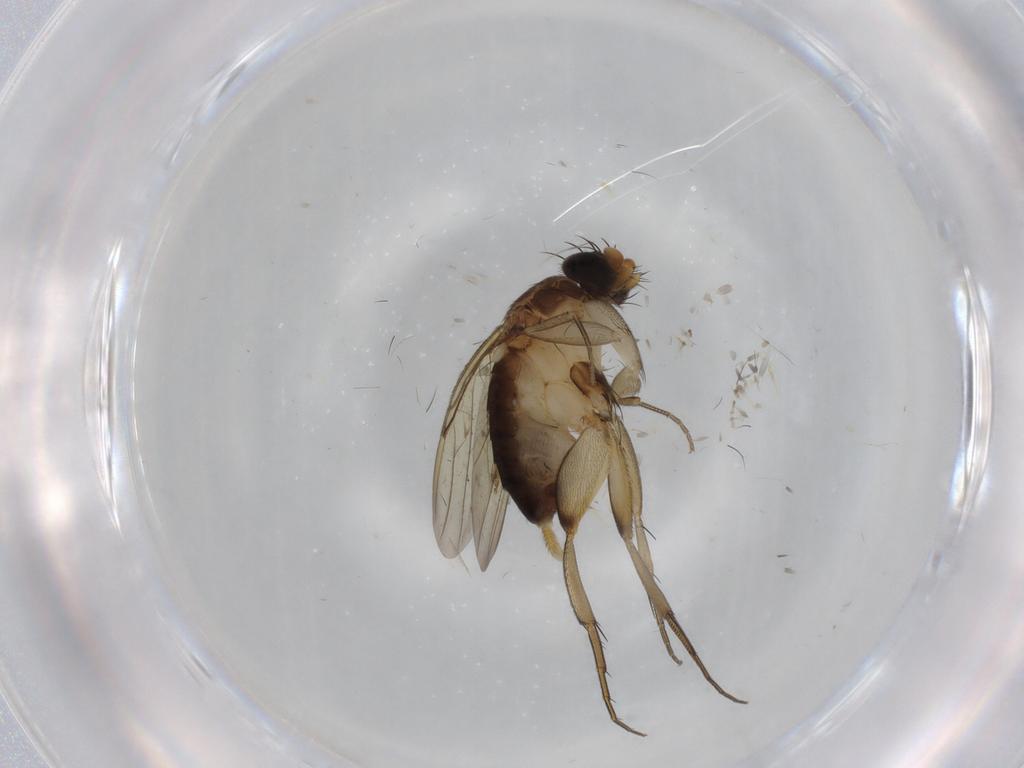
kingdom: Animalia
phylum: Arthropoda
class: Insecta
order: Diptera
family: Phoridae
